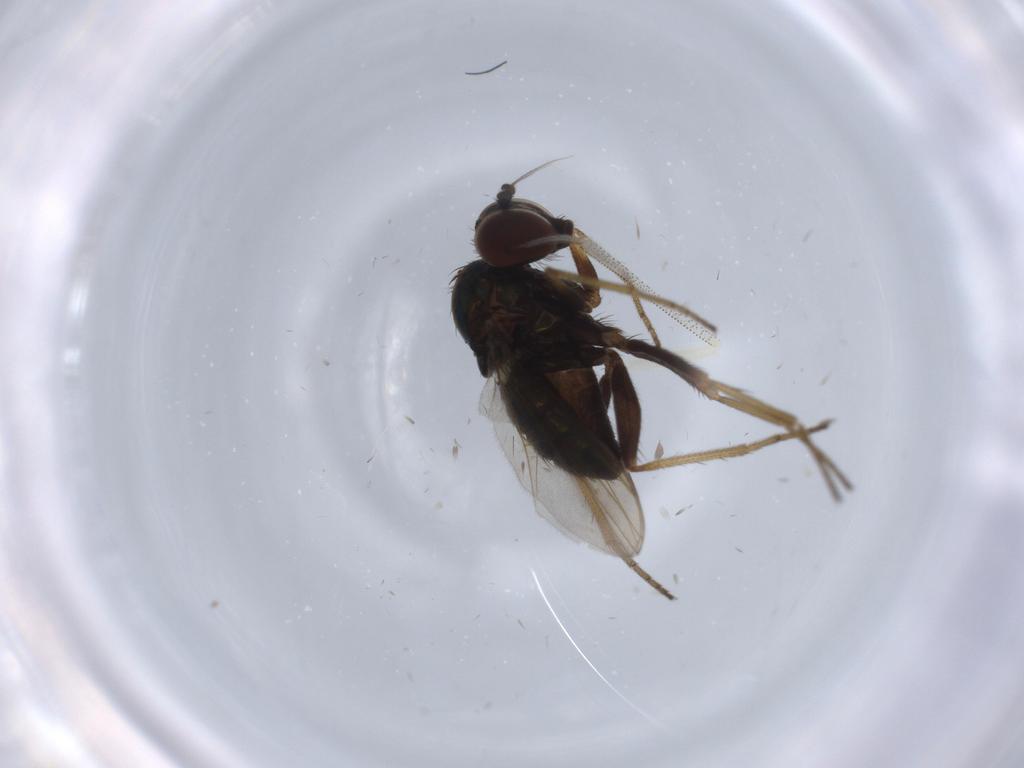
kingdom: Animalia
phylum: Arthropoda
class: Insecta
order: Diptera
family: Dolichopodidae
